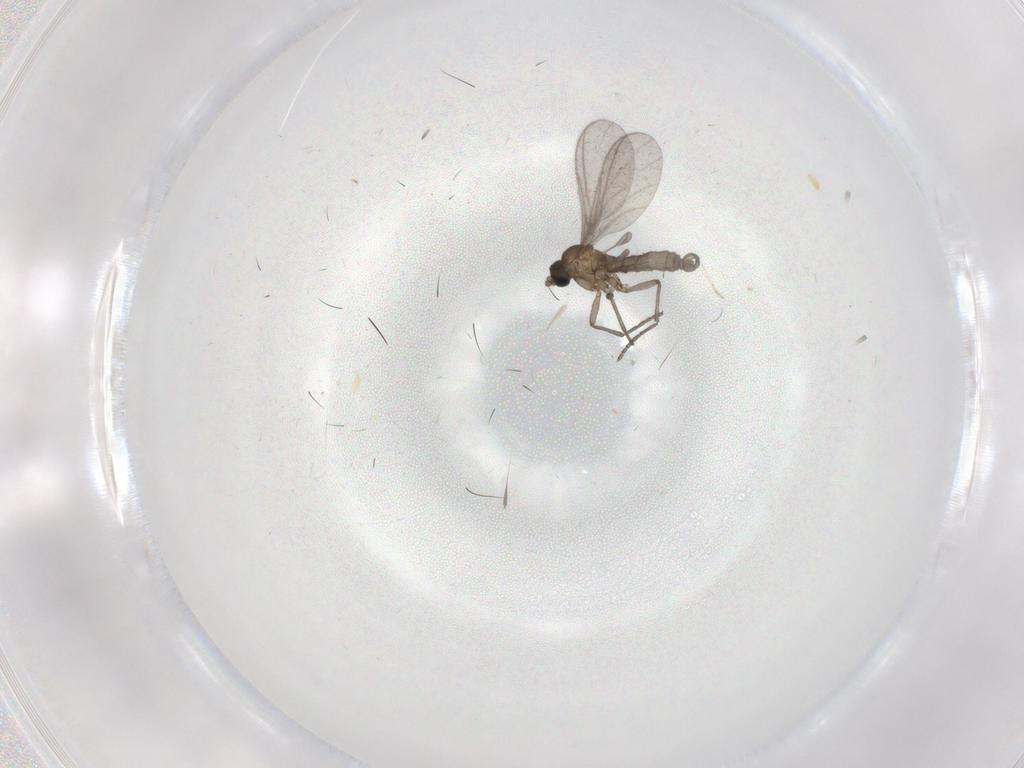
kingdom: Animalia
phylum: Arthropoda
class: Insecta
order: Diptera
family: Sciaridae
